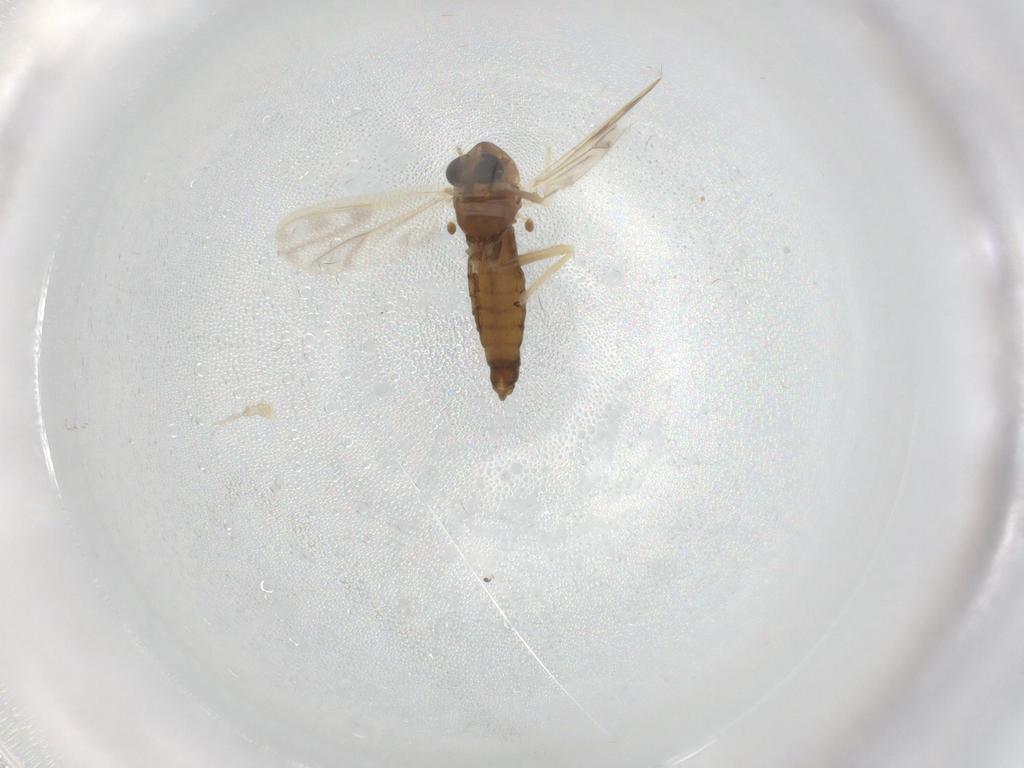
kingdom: Animalia
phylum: Arthropoda
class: Insecta
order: Diptera
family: Chironomidae
